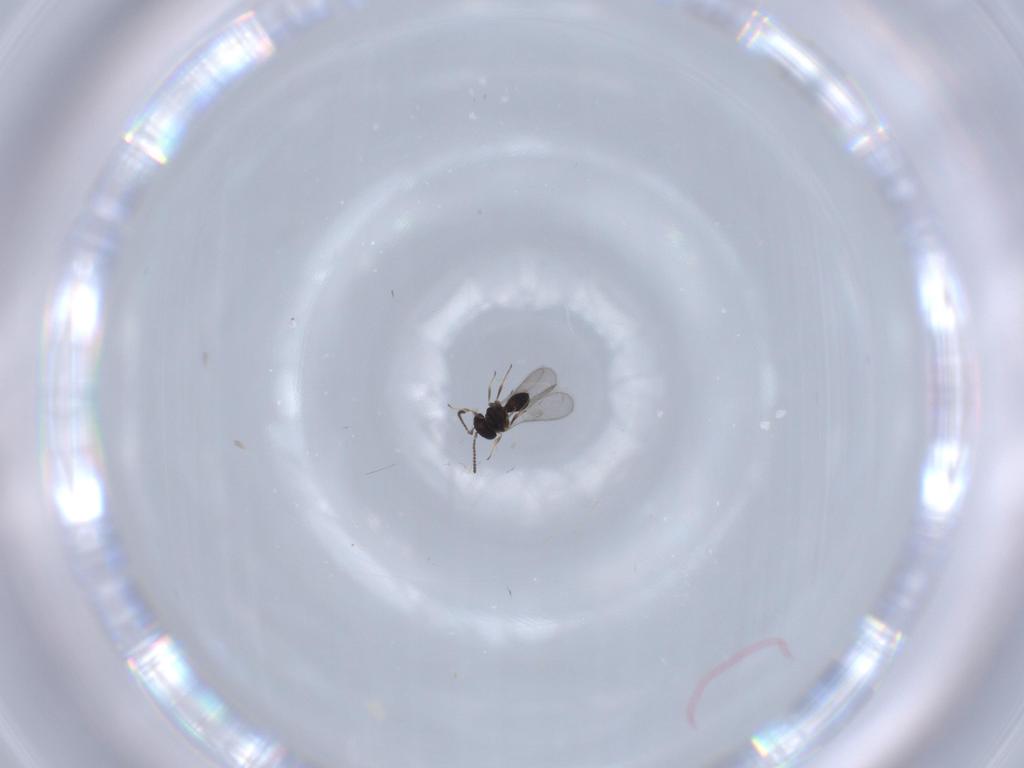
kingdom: Animalia
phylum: Arthropoda
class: Insecta
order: Hymenoptera
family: Scelionidae
